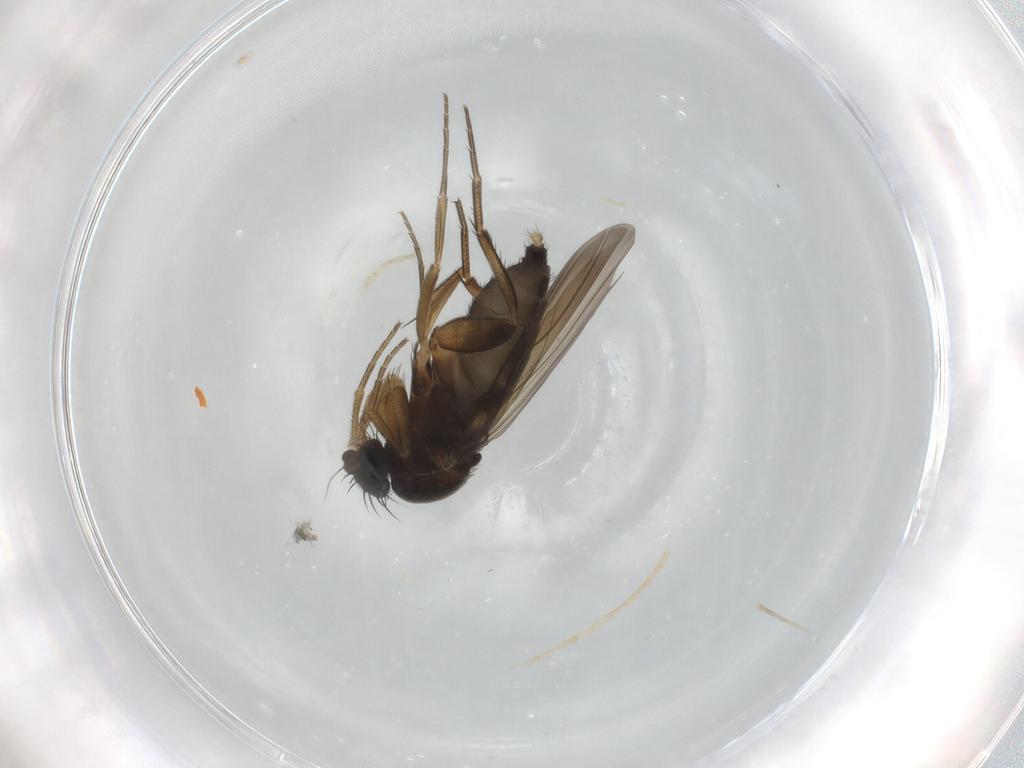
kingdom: Animalia
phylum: Arthropoda
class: Insecta
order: Diptera
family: Phoridae
